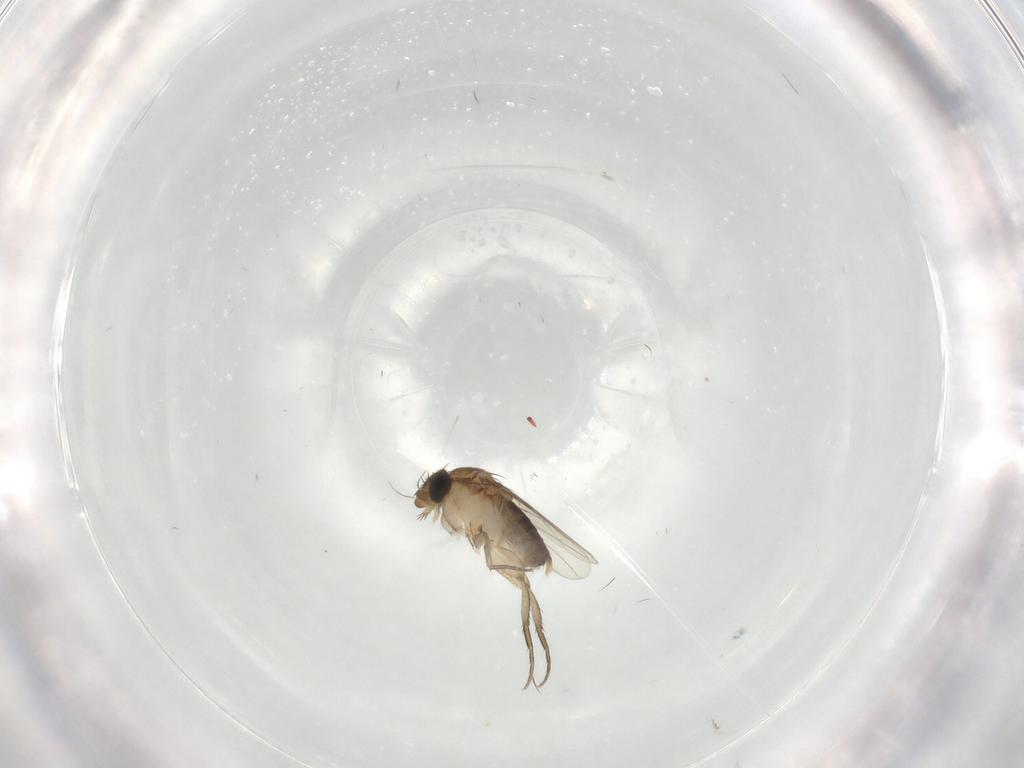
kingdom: Animalia
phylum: Arthropoda
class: Insecta
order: Diptera
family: Phoridae
